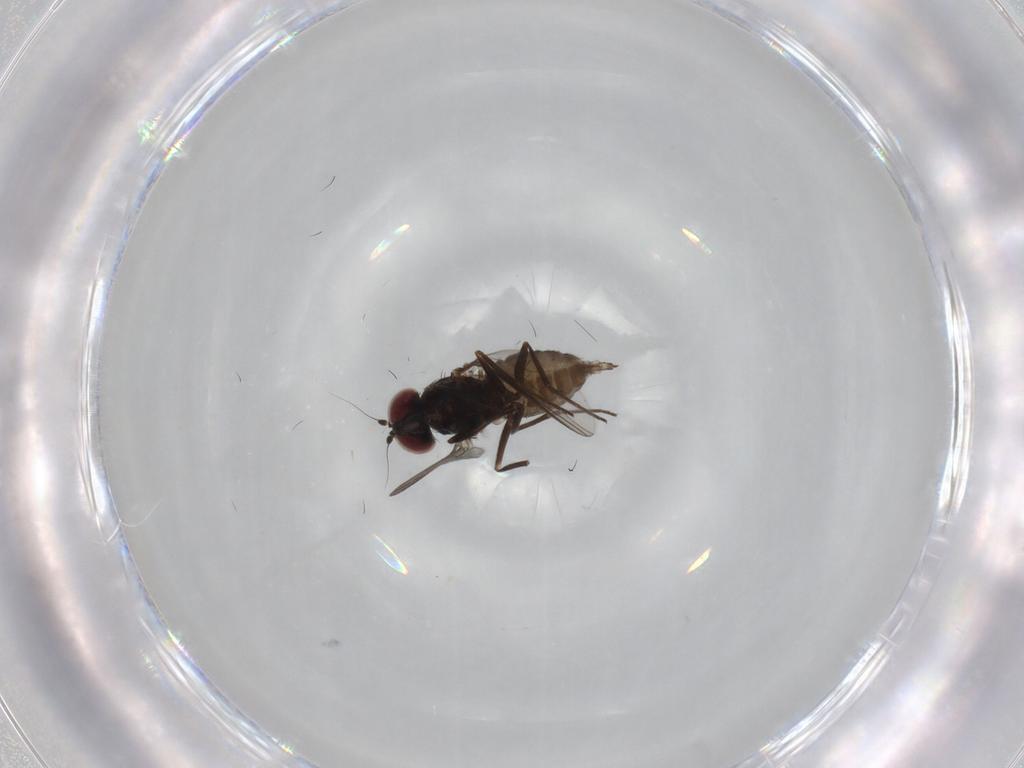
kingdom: Animalia
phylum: Arthropoda
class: Insecta
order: Diptera
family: Dolichopodidae
